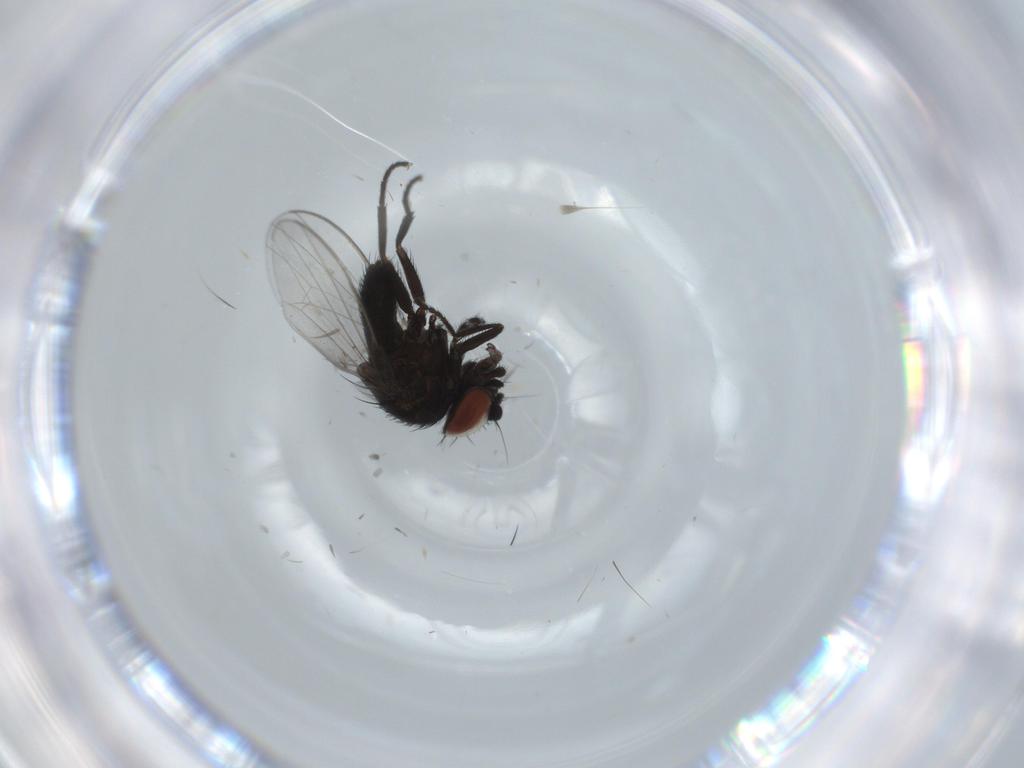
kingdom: Animalia
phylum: Arthropoda
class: Insecta
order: Diptera
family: Milichiidae
